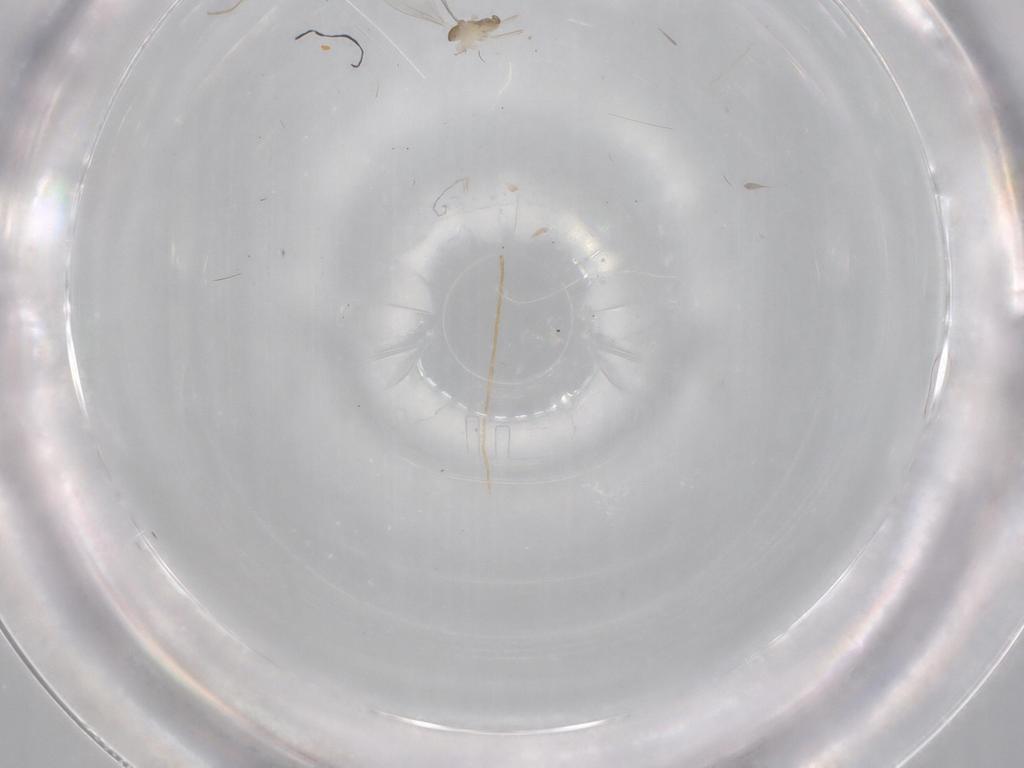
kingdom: Animalia
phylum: Arthropoda
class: Insecta
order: Diptera
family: Cecidomyiidae
